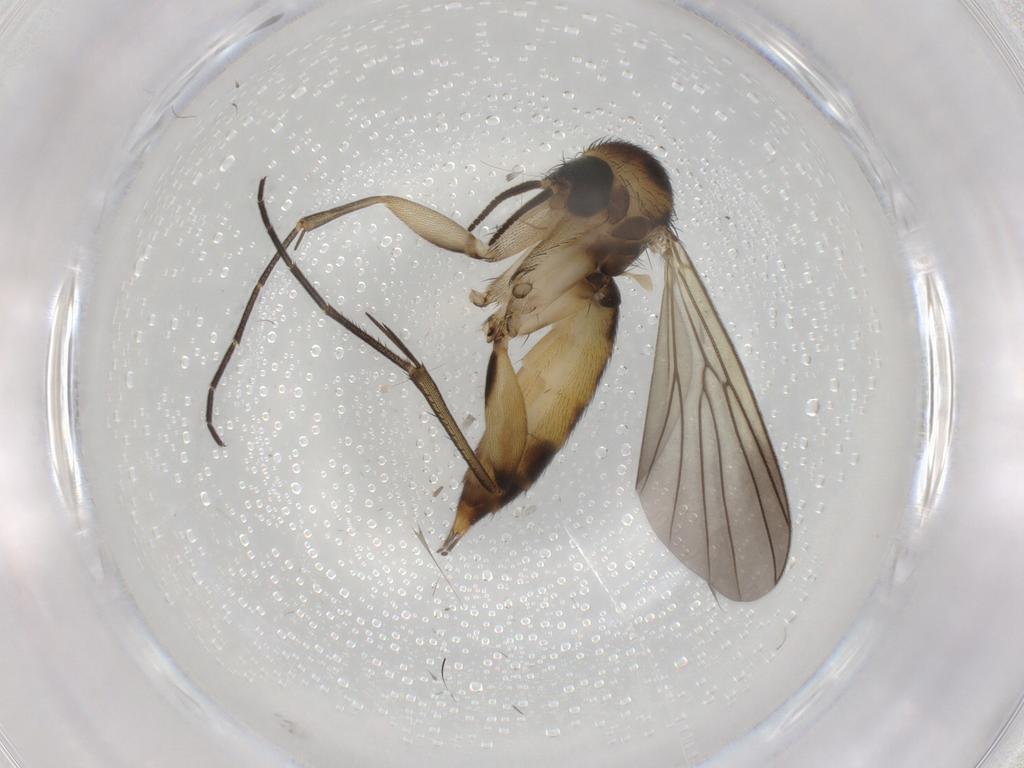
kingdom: Animalia
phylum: Arthropoda
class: Insecta
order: Diptera
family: Mycetophilidae
